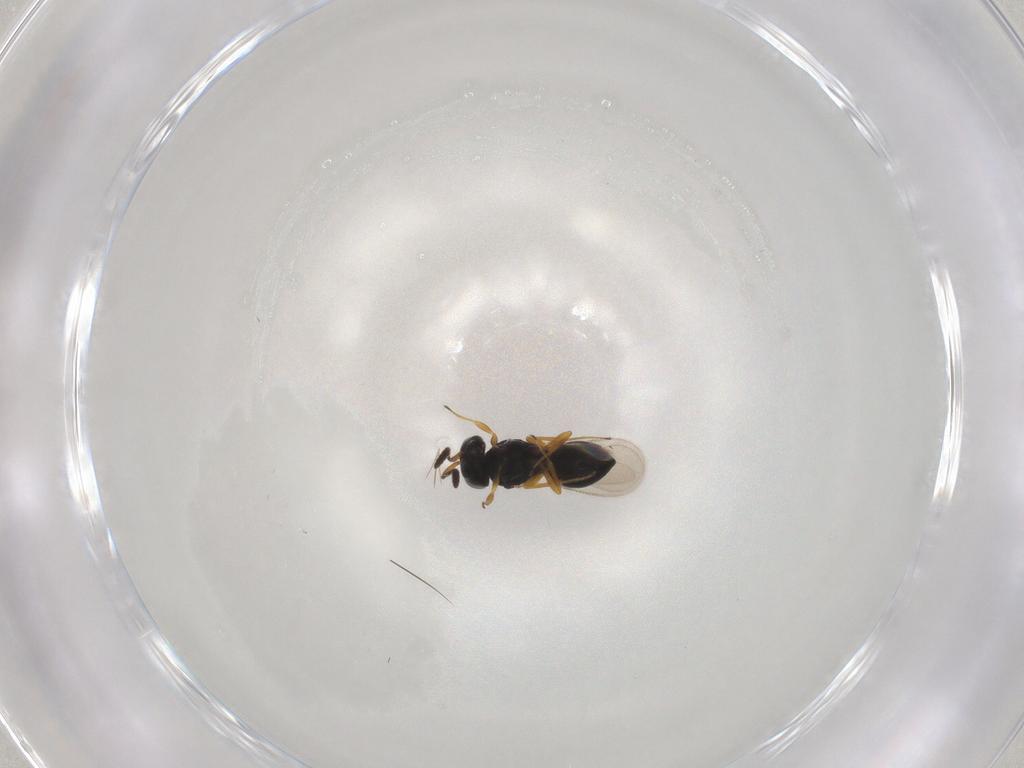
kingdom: Animalia
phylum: Arthropoda
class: Insecta
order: Hymenoptera
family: Scelionidae
